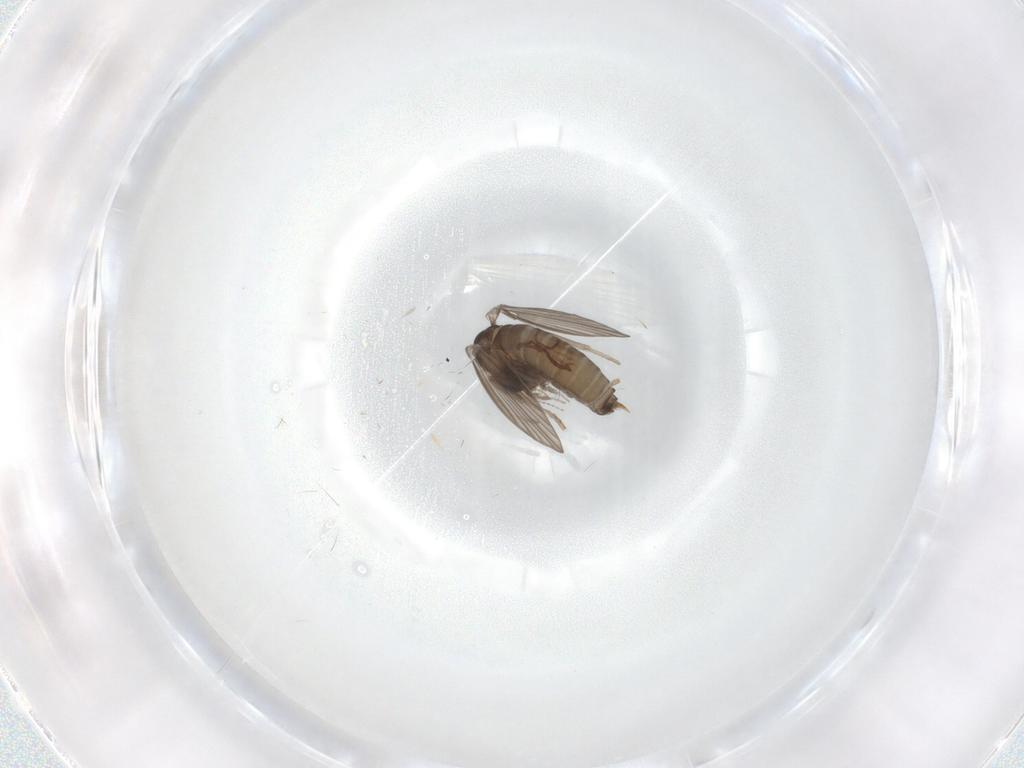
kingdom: Animalia
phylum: Arthropoda
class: Insecta
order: Diptera
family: Psychodidae
